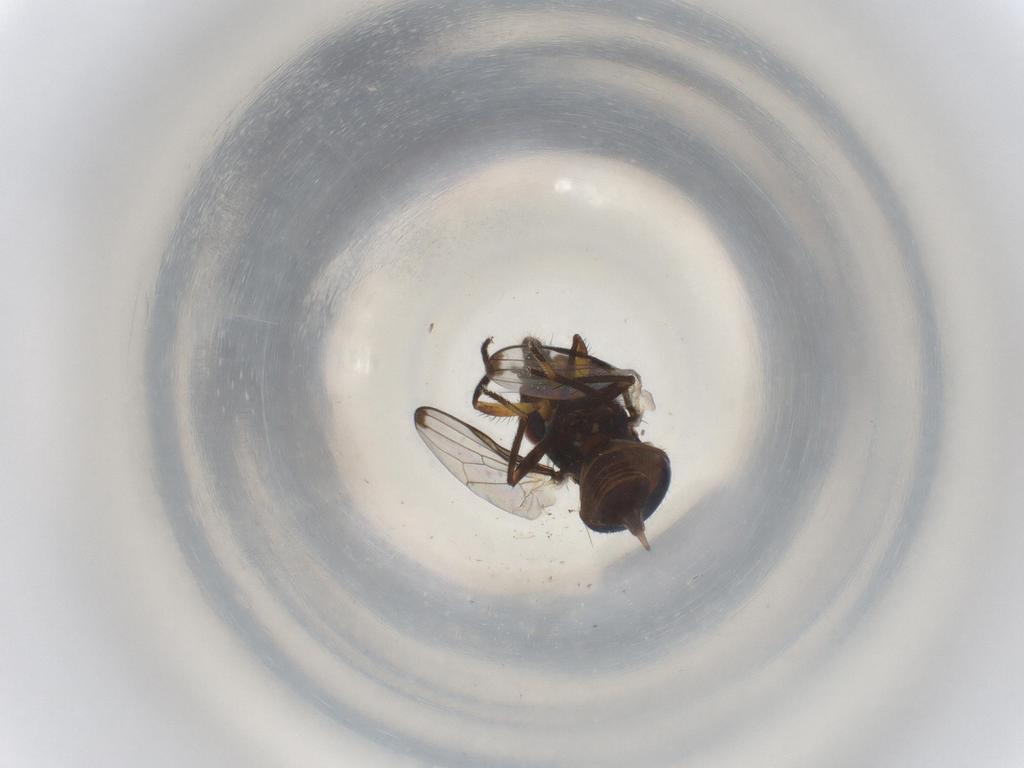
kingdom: Animalia
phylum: Arthropoda
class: Insecta
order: Diptera
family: Ulidiidae
